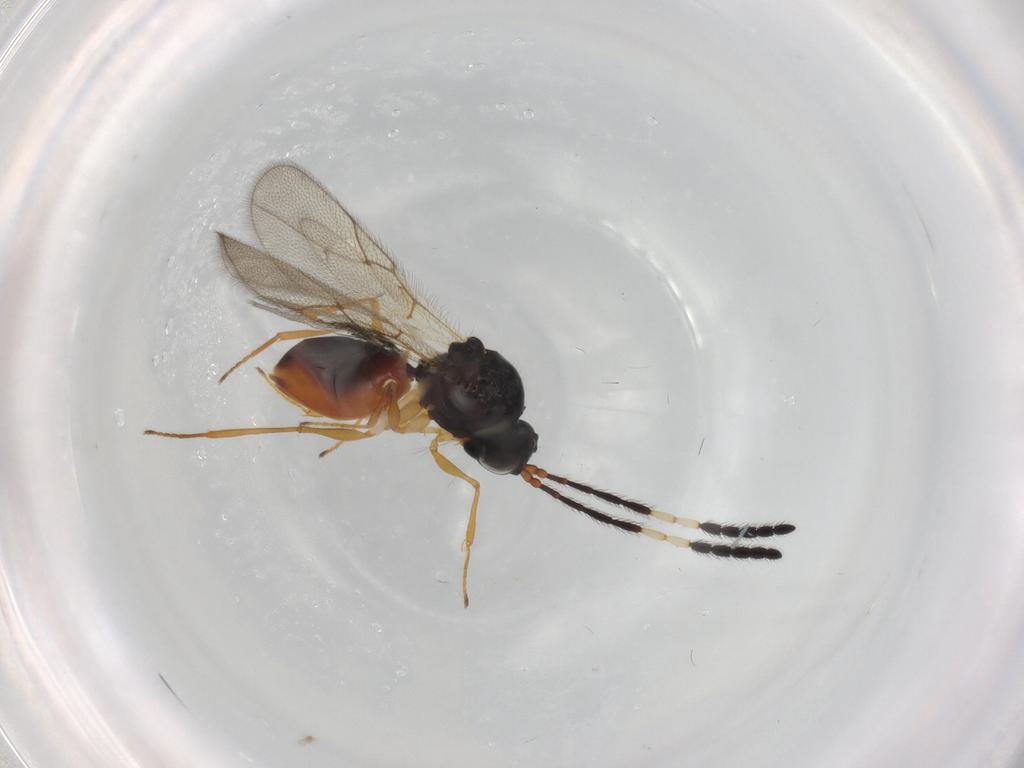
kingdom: Animalia
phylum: Arthropoda
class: Insecta
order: Hymenoptera
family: Figitidae
